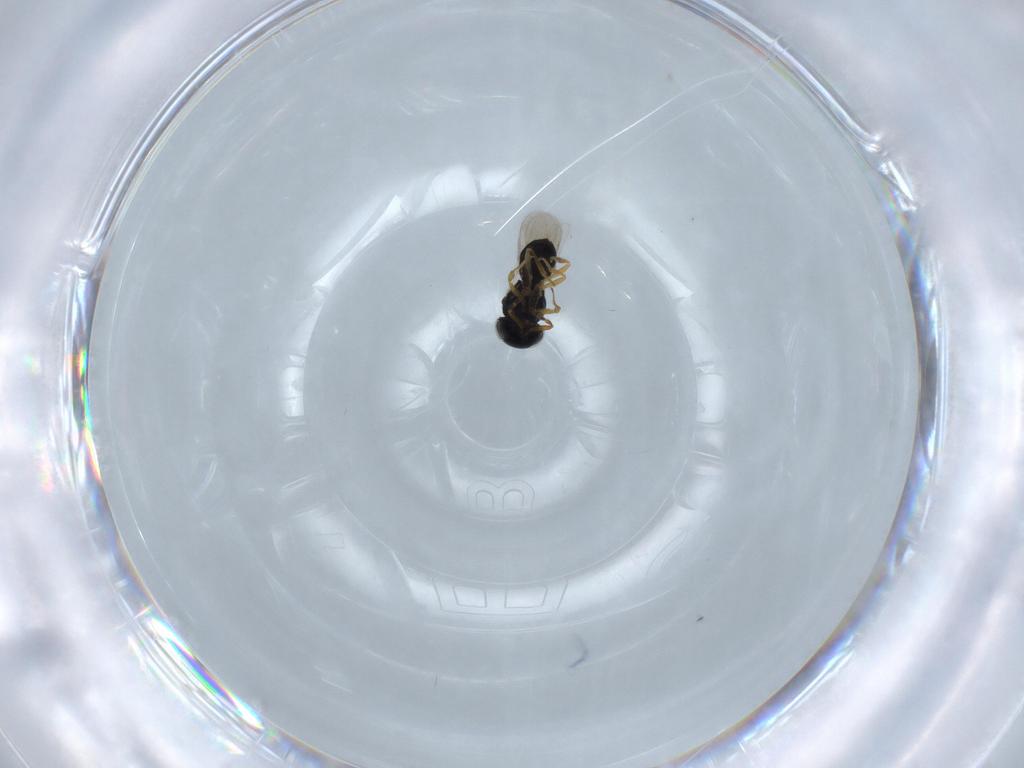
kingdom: Animalia
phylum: Arthropoda
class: Insecta
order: Hymenoptera
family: Scelionidae
